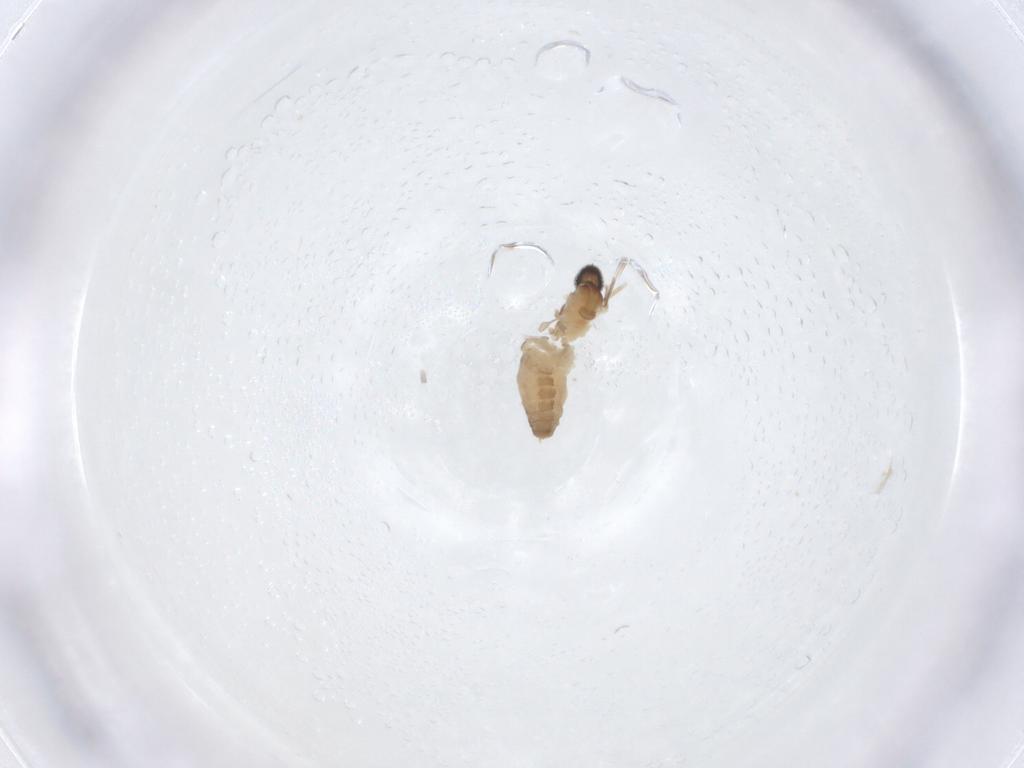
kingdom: Animalia
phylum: Arthropoda
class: Insecta
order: Diptera
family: Cecidomyiidae
